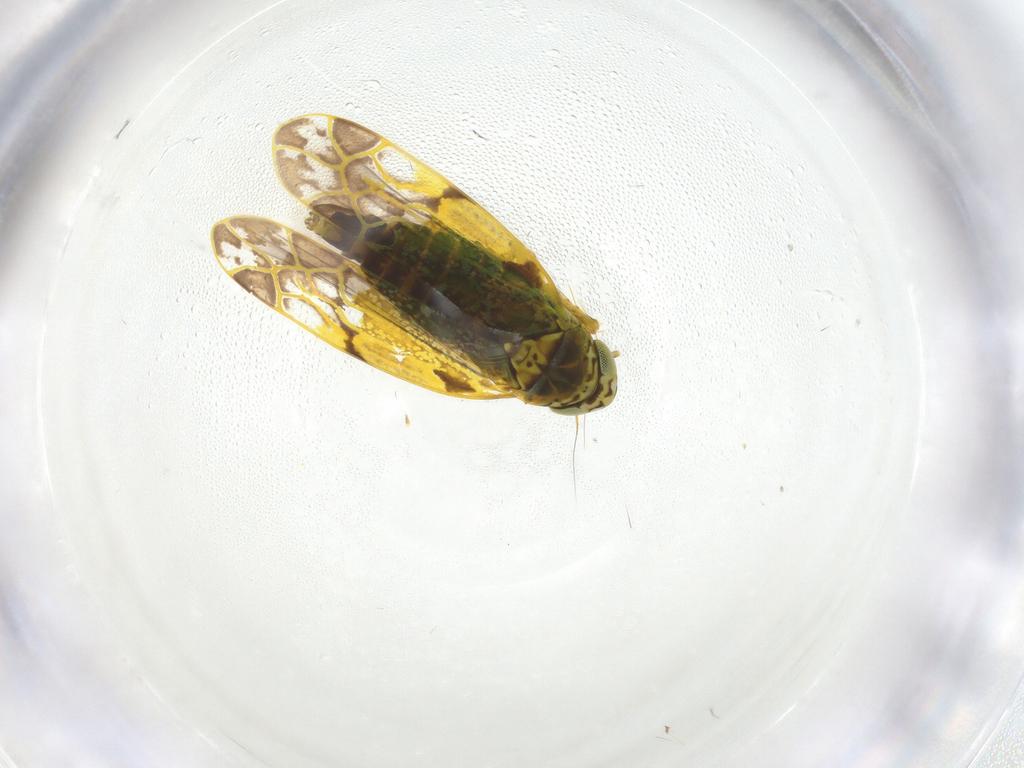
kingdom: Animalia
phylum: Arthropoda
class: Insecta
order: Hemiptera
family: Cicadellidae
